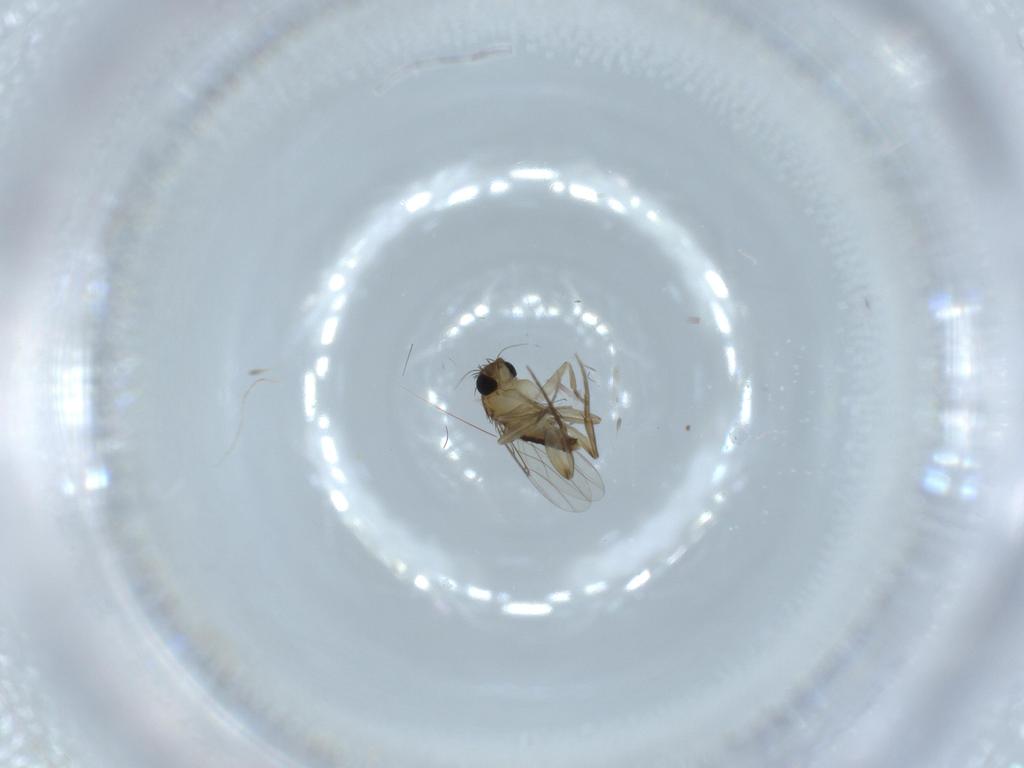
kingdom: Animalia
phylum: Arthropoda
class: Insecta
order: Diptera
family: Phoridae
